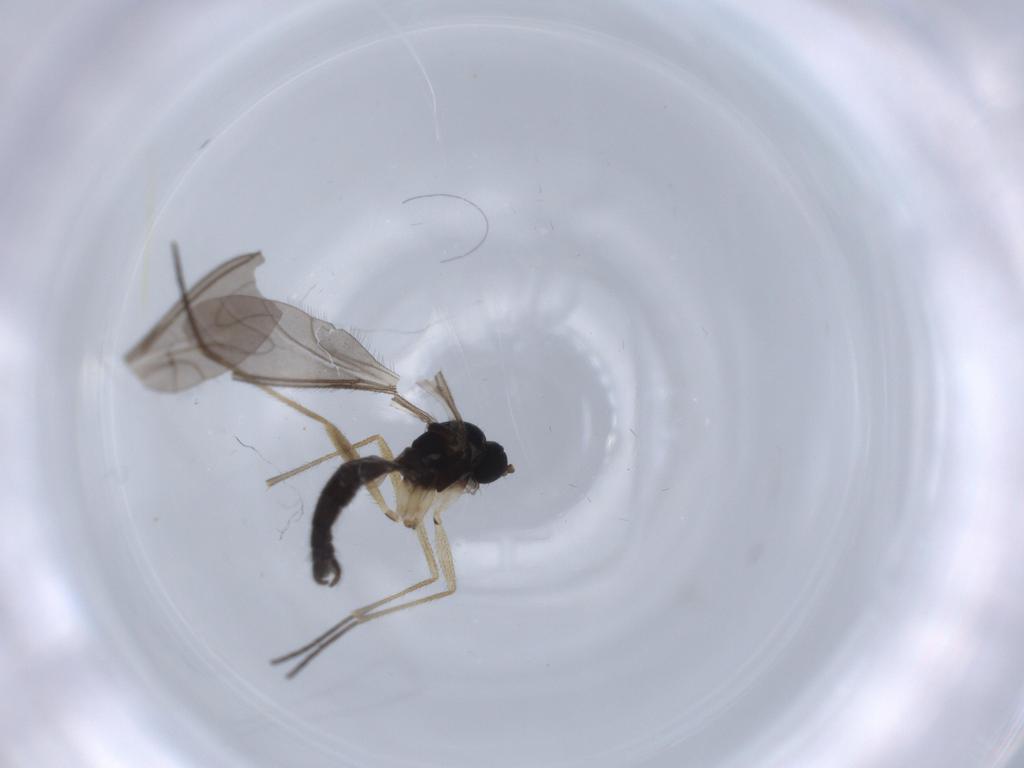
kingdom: Animalia
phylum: Arthropoda
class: Insecta
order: Diptera
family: Sciaridae
